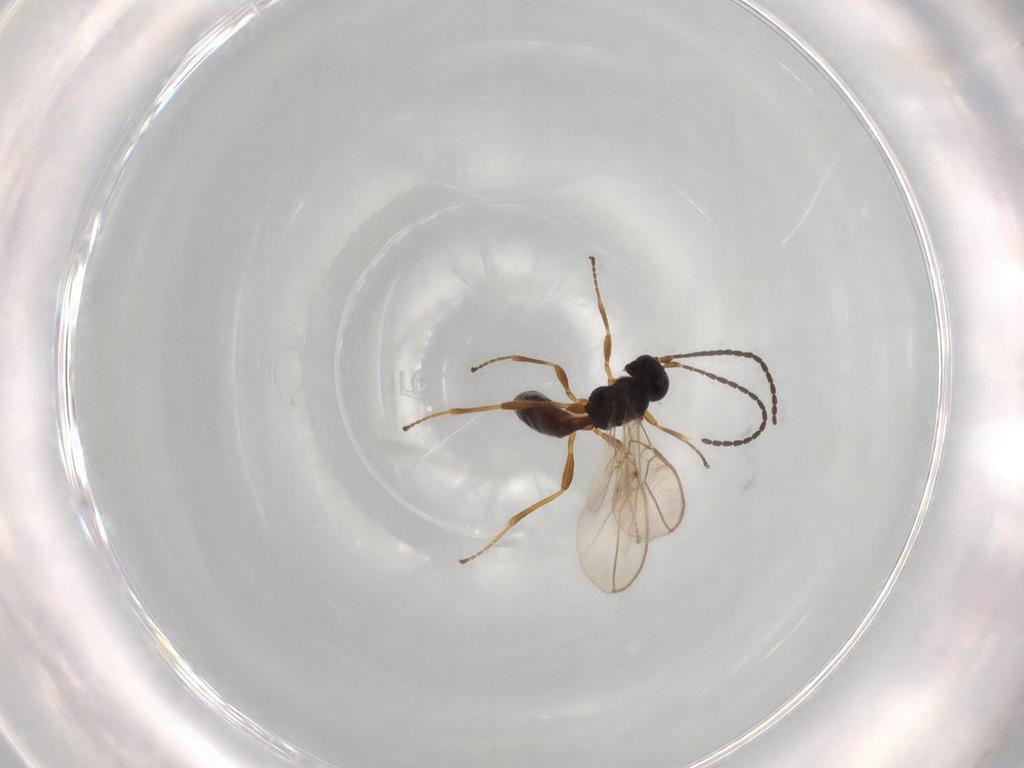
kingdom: Animalia
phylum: Arthropoda
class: Insecta
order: Hymenoptera
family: Braconidae
